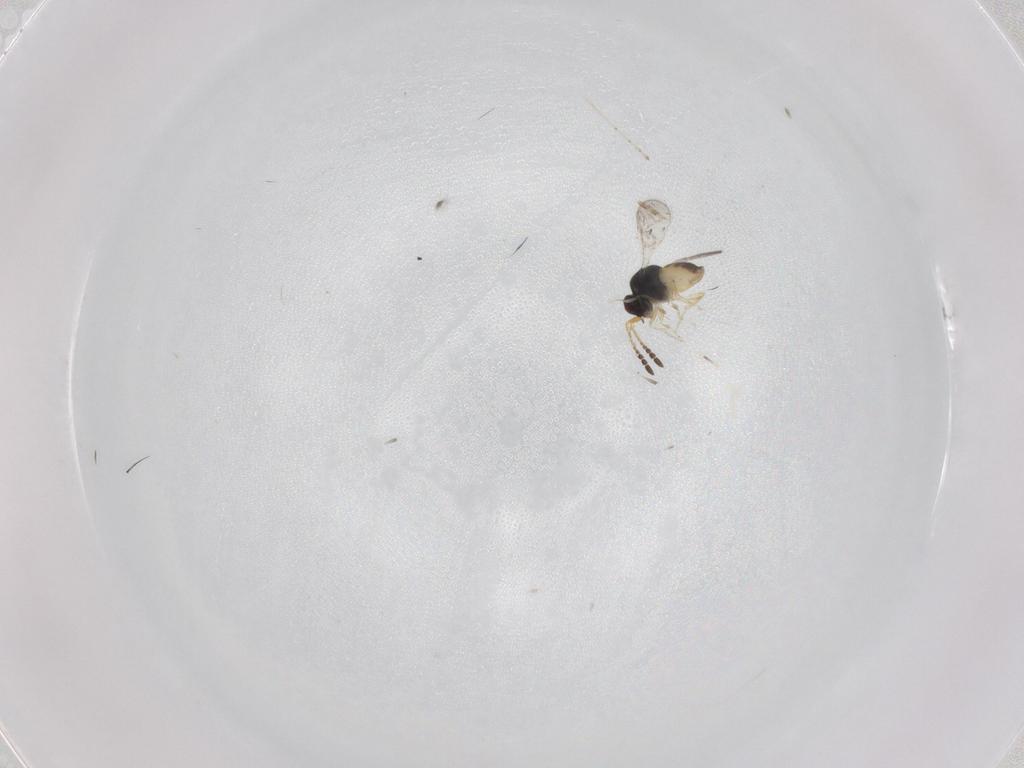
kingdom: Animalia
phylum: Arthropoda
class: Insecta
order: Hymenoptera
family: Ceraphronidae
